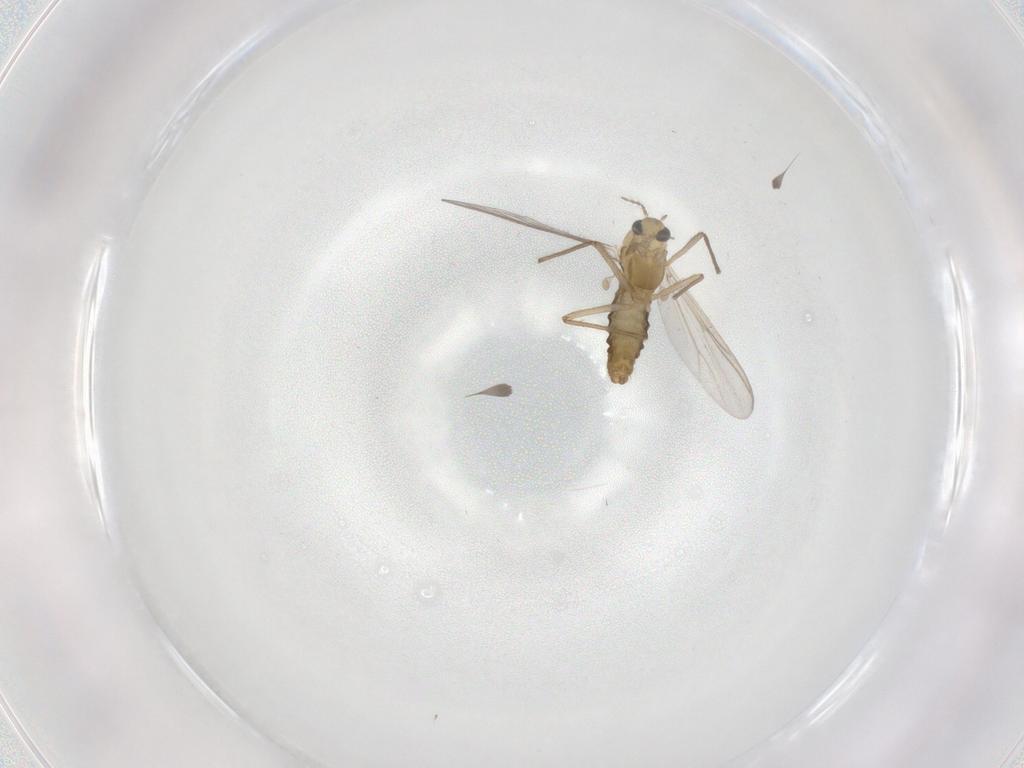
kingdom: Animalia
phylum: Arthropoda
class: Insecta
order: Diptera
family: Chironomidae
